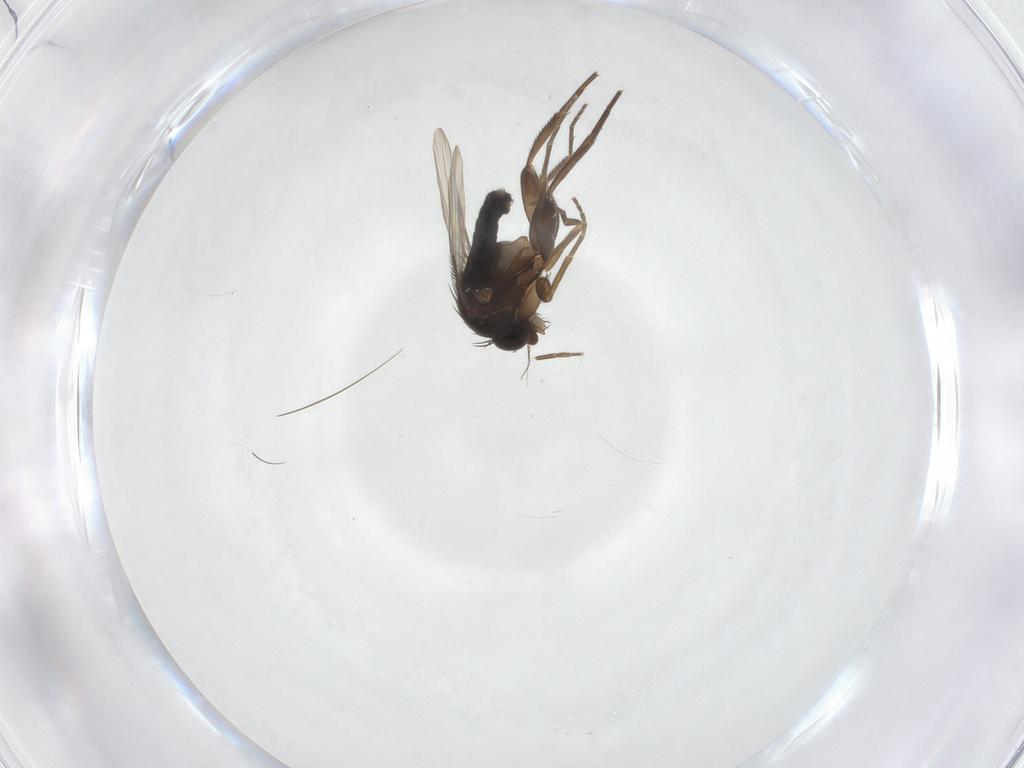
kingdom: Animalia
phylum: Arthropoda
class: Insecta
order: Diptera
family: Phoridae
